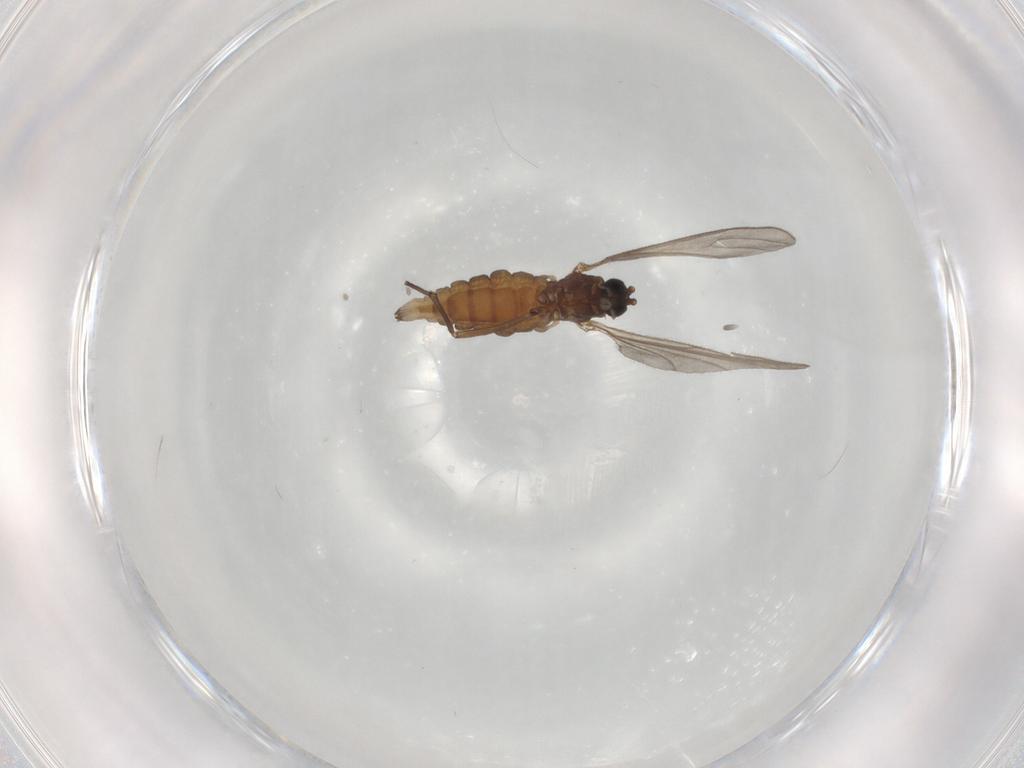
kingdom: Animalia
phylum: Arthropoda
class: Insecta
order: Diptera
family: Sciaridae
